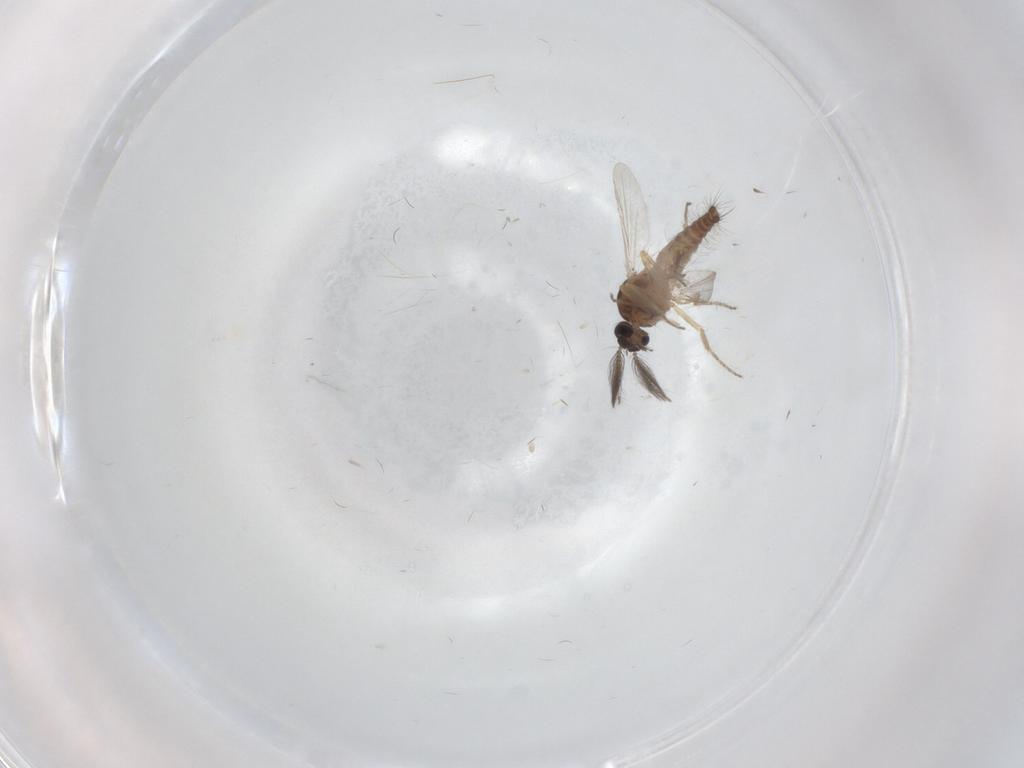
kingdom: Animalia
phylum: Arthropoda
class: Insecta
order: Diptera
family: Ceratopogonidae
